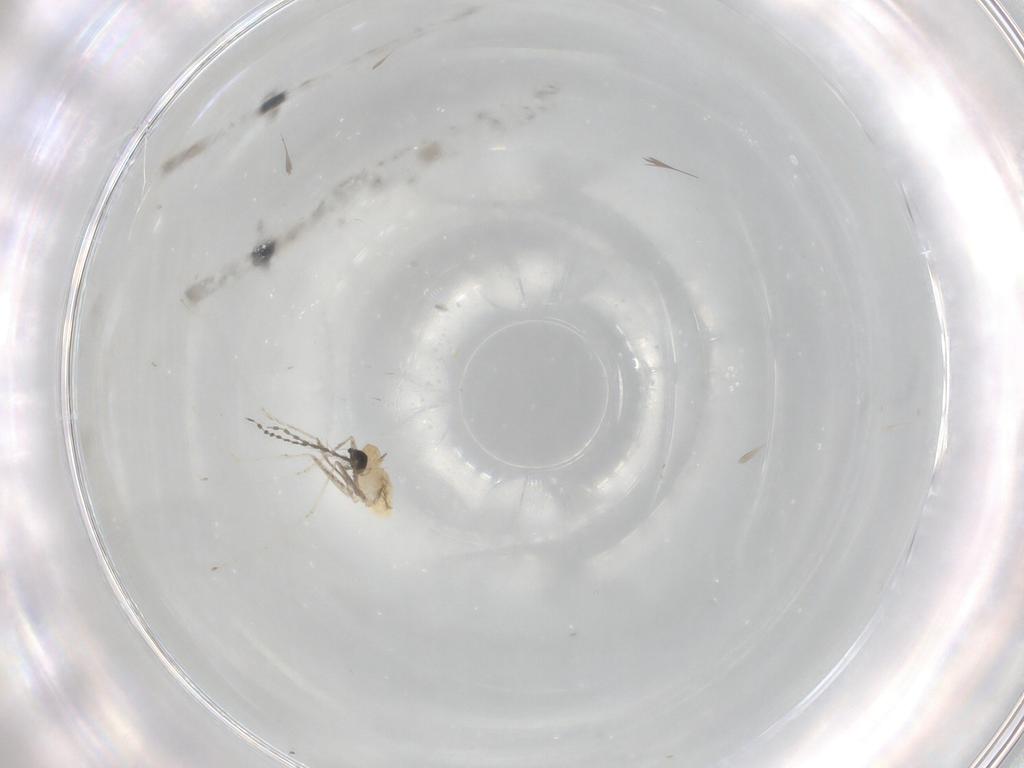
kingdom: Animalia
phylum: Arthropoda
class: Insecta
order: Diptera
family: Cecidomyiidae
